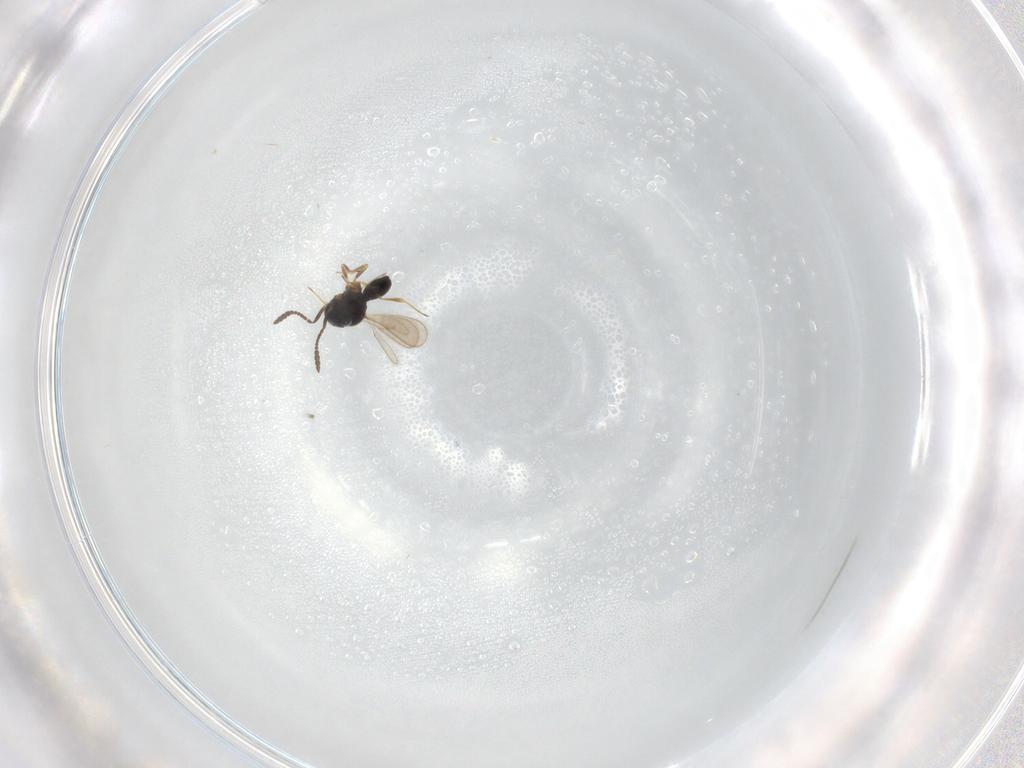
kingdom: Animalia
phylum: Arthropoda
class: Insecta
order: Hymenoptera
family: Scelionidae
